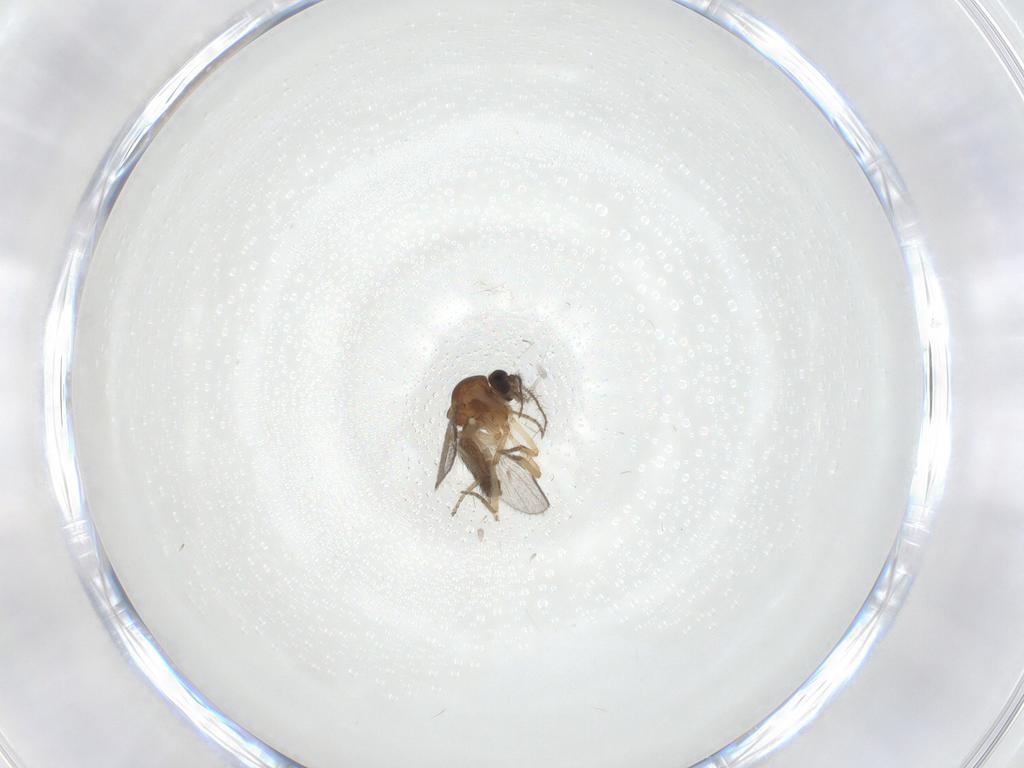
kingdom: Animalia
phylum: Arthropoda
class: Insecta
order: Diptera
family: Ceratopogonidae
